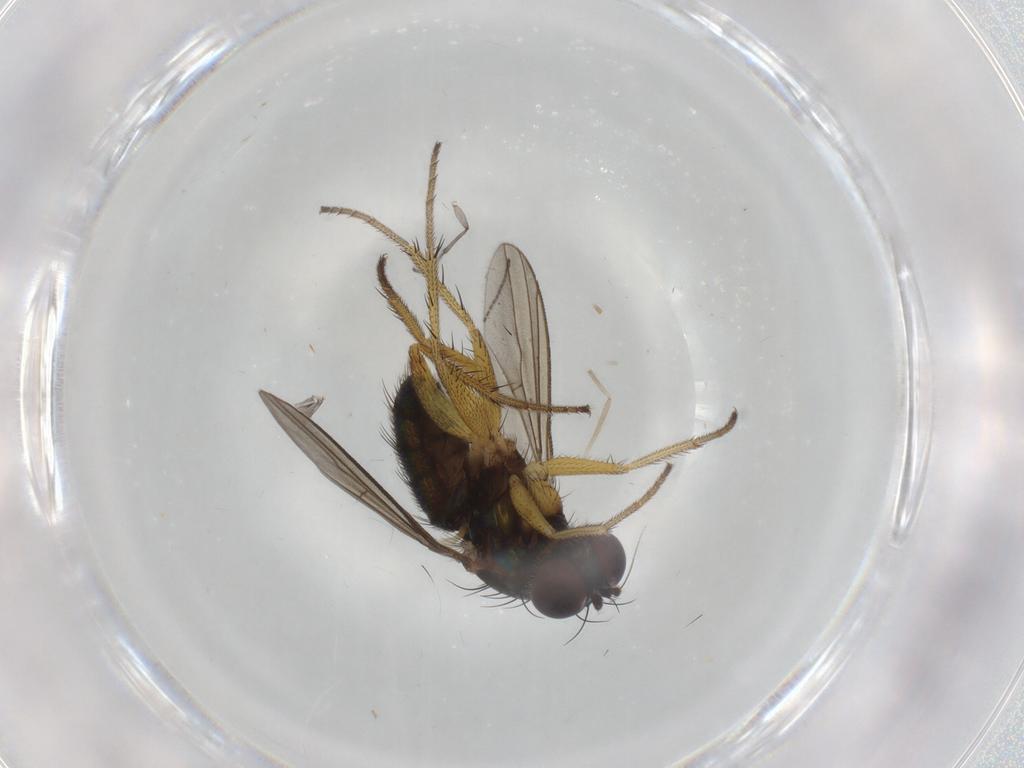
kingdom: Animalia
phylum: Arthropoda
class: Insecta
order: Diptera
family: Dolichopodidae
